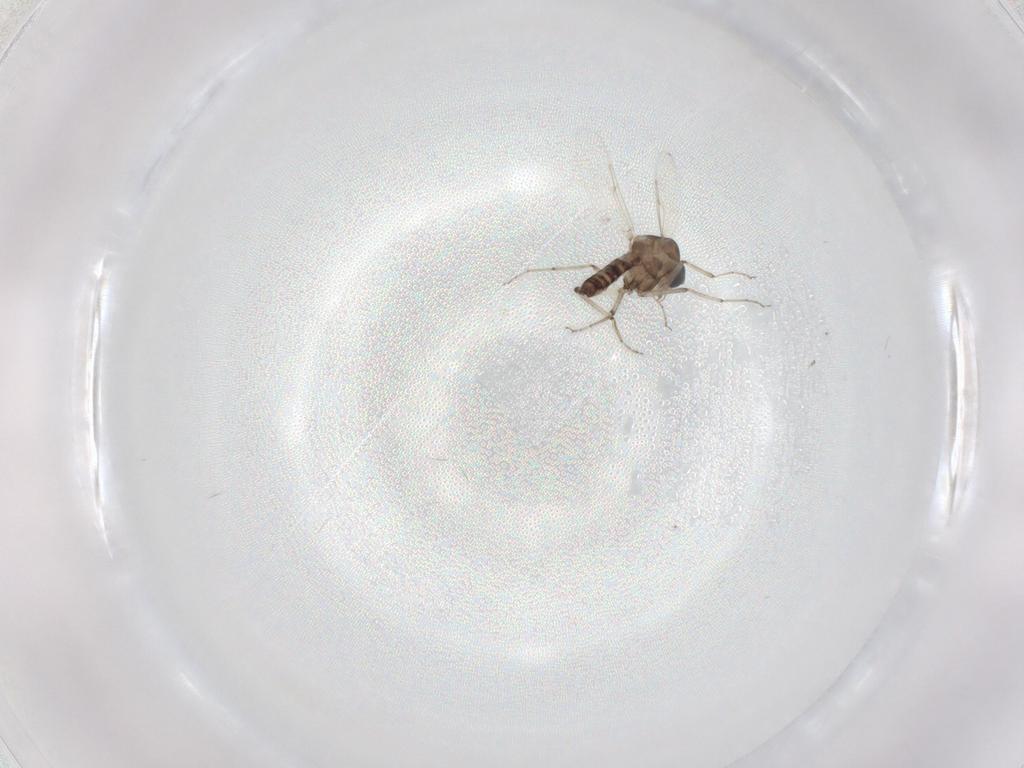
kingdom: Animalia
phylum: Arthropoda
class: Insecta
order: Diptera
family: Ceratopogonidae
